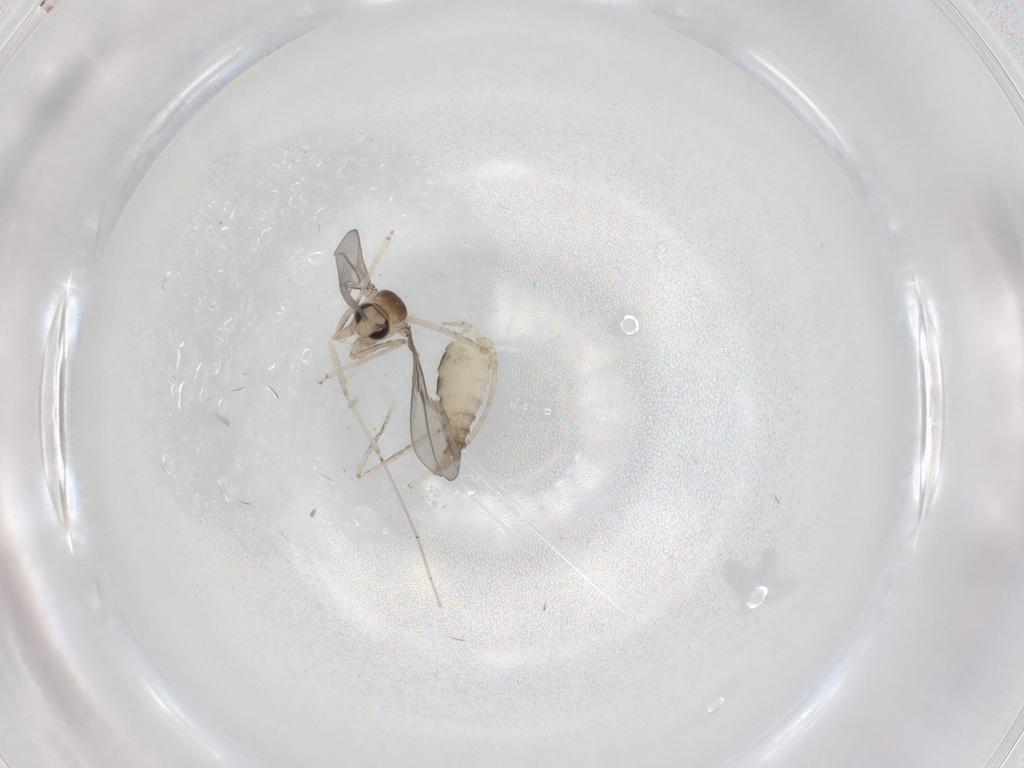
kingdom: Animalia
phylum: Arthropoda
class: Insecta
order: Diptera
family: Cecidomyiidae
